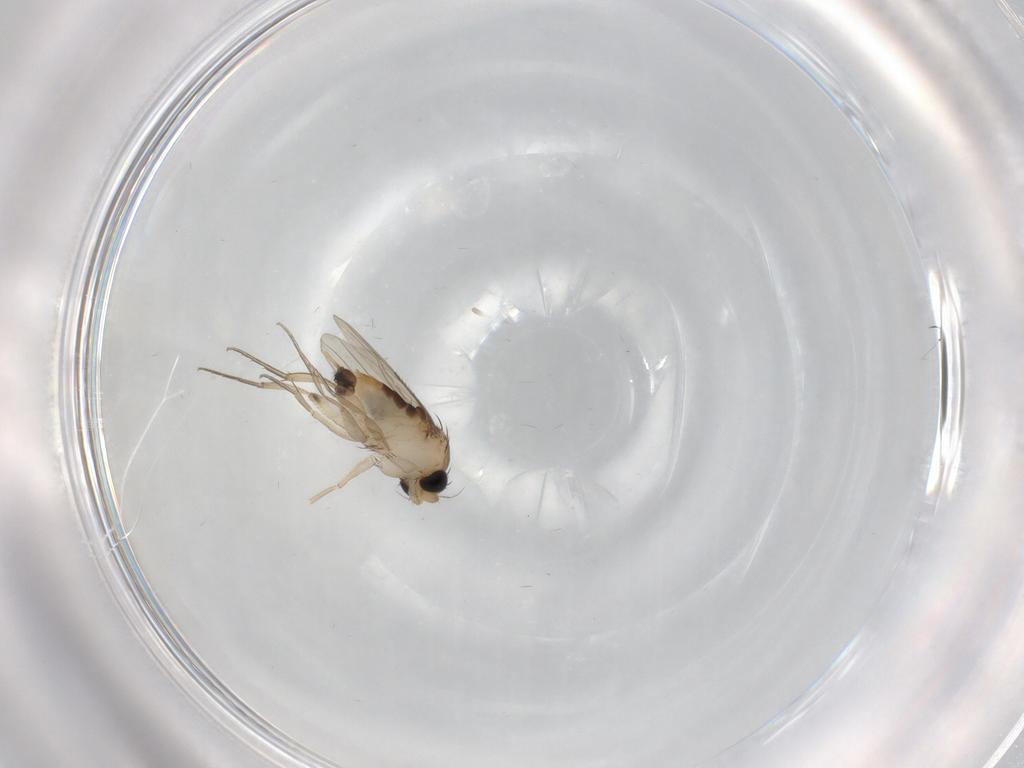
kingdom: Animalia
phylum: Arthropoda
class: Insecta
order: Diptera
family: Phoridae
